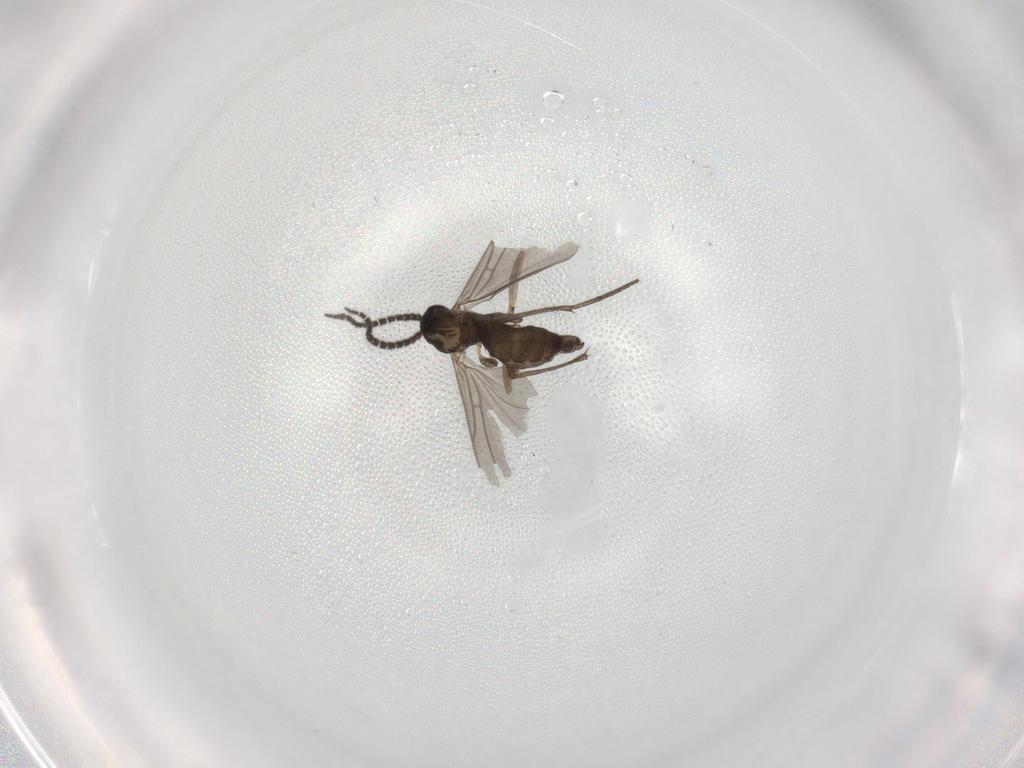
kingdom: Animalia
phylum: Arthropoda
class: Insecta
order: Diptera
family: Sciaridae
